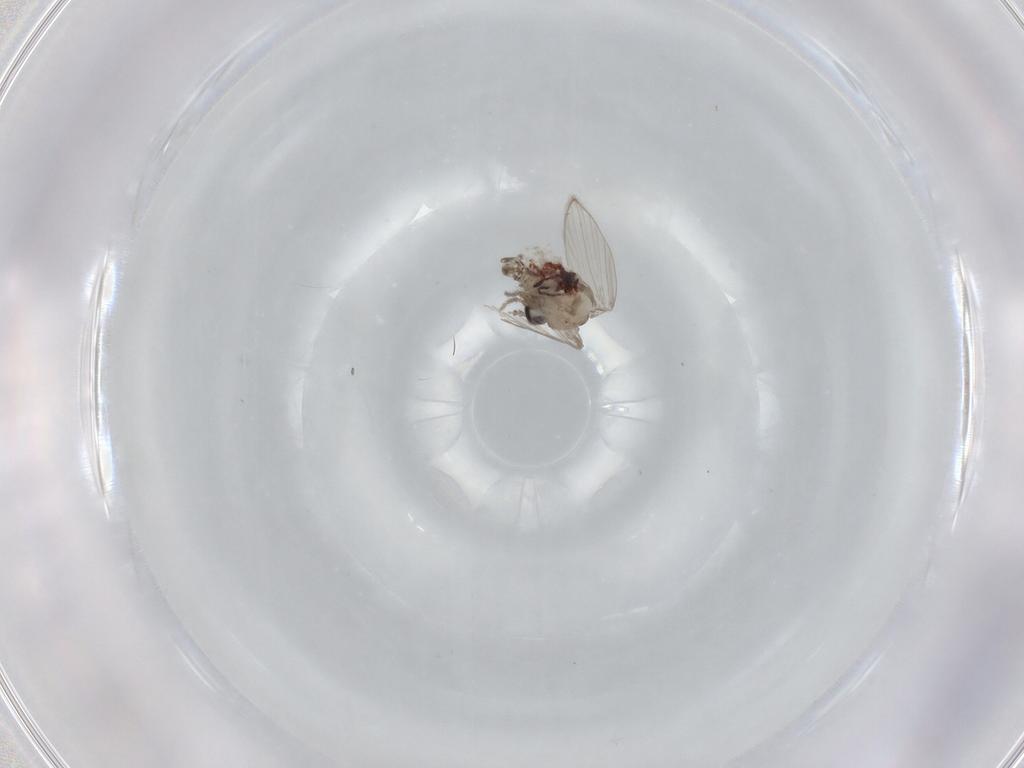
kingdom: Animalia
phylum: Arthropoda
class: Insecta
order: Diptera
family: Psychodidae
